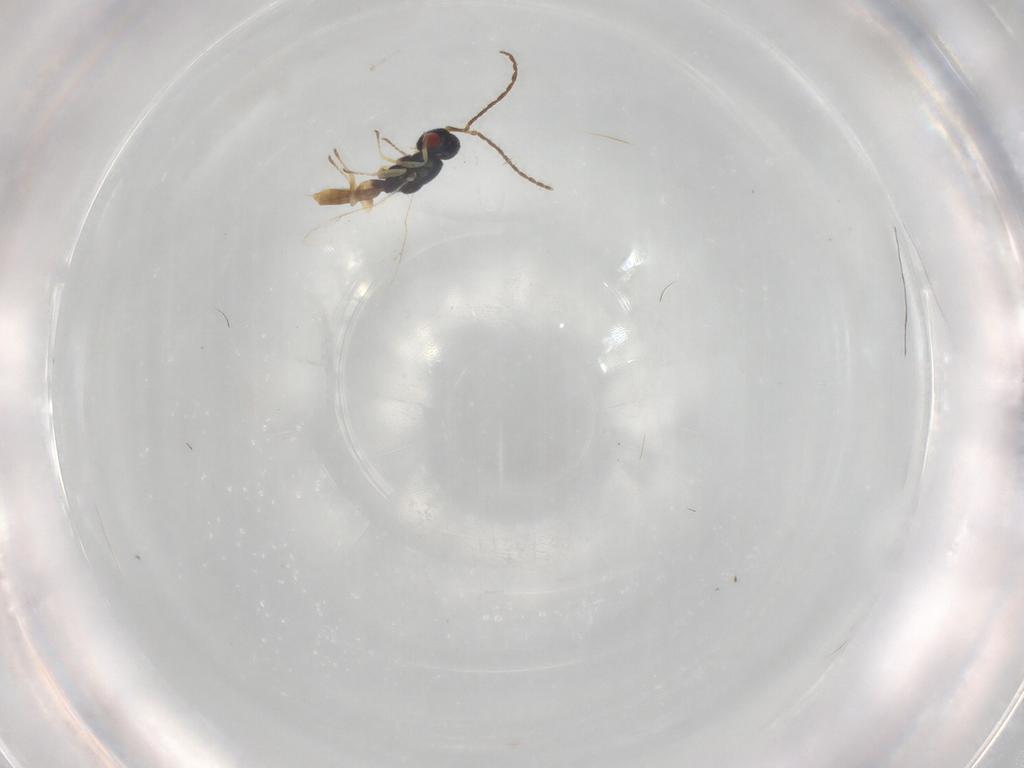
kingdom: Animalia
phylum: Arthropoda
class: Insecta
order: Hymenoptera
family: Pteromalidae
